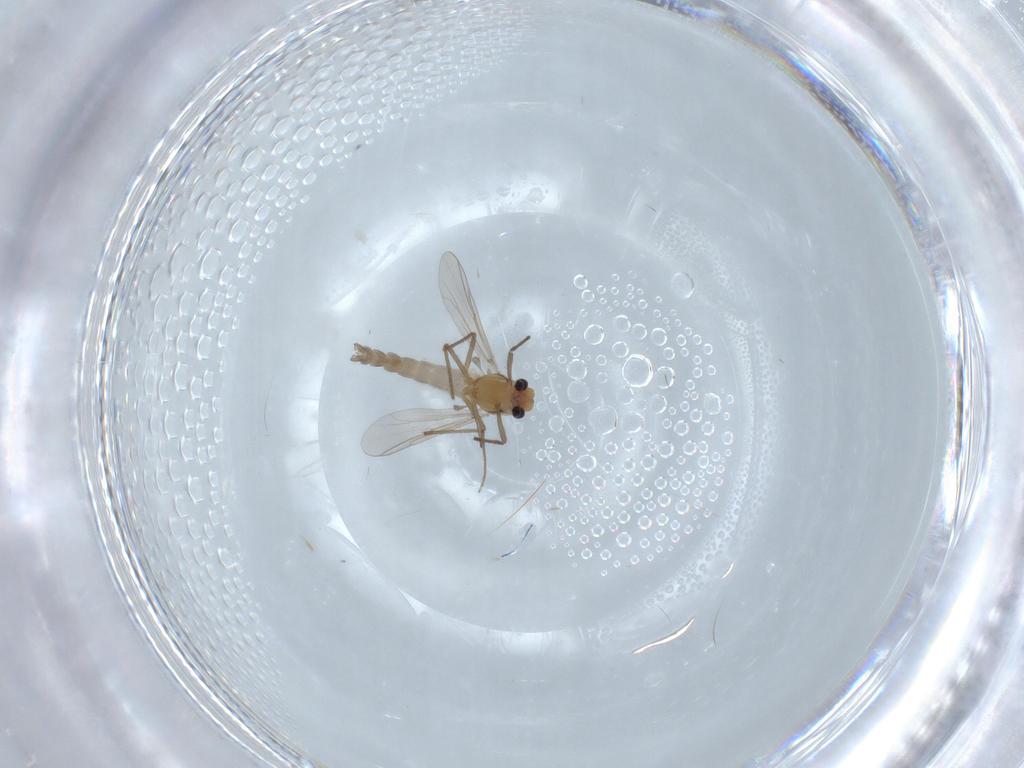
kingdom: Animalia
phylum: Arthropoda
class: Insecta
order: Diptera
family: Chironomidae
